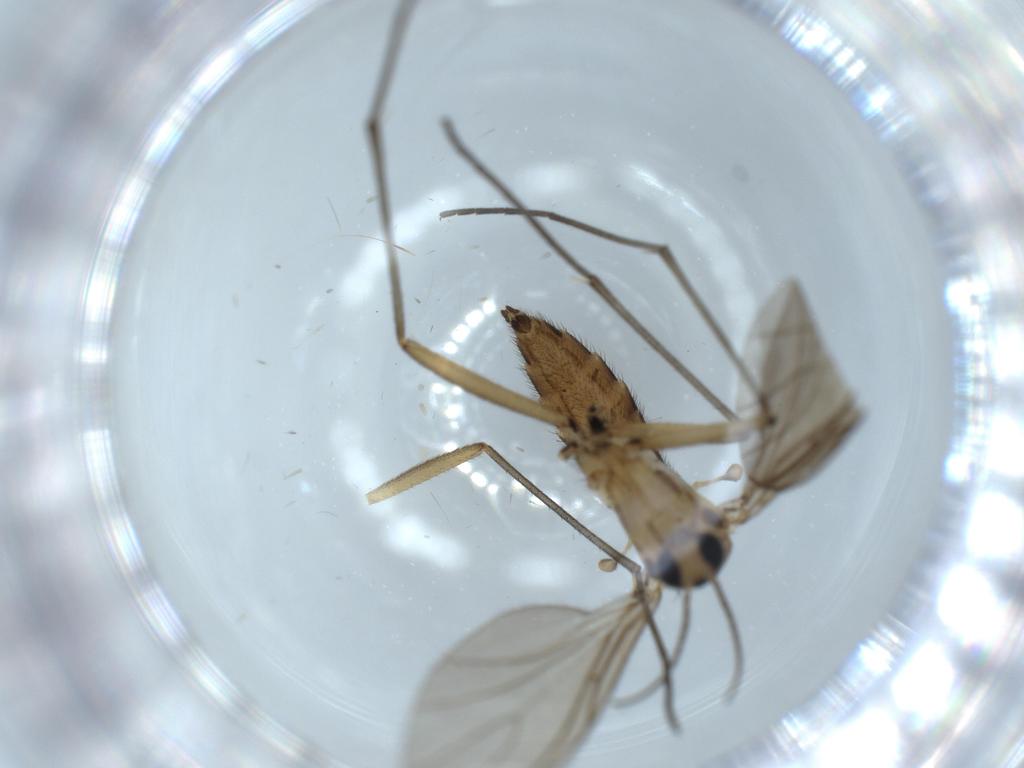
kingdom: Animalia
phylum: Arthropoda
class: Insecta
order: Diptera
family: Sciaridae
